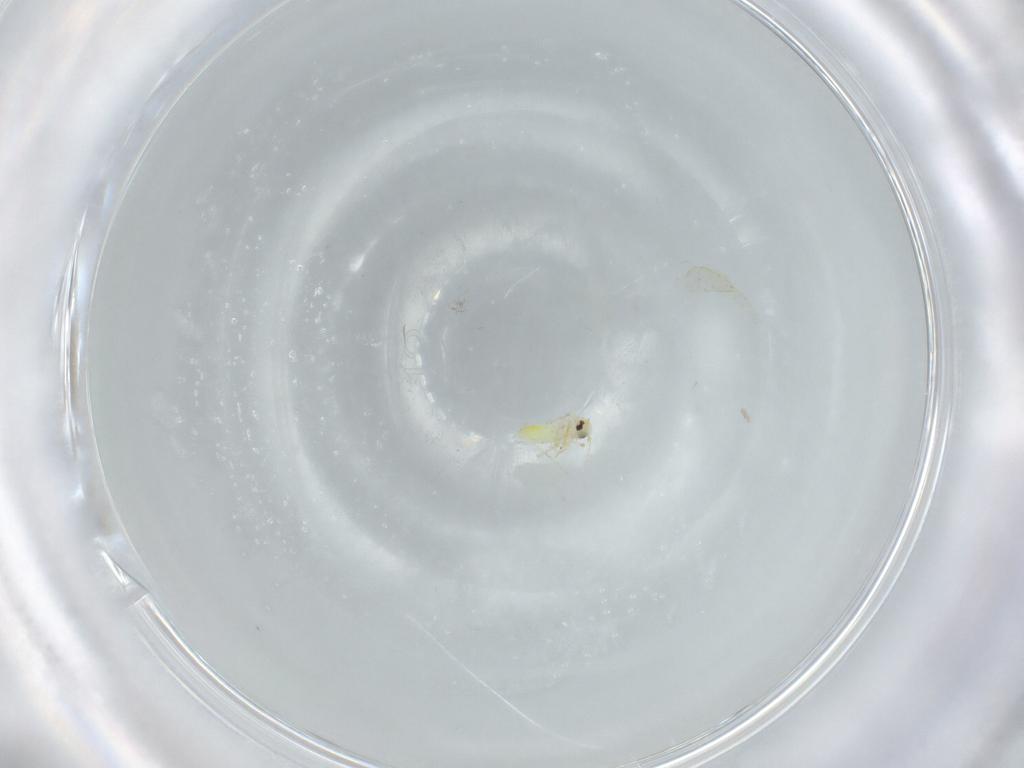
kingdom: Animalia
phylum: Arthropoda
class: Insecta
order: Hemiptera
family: Aleyrodidae
